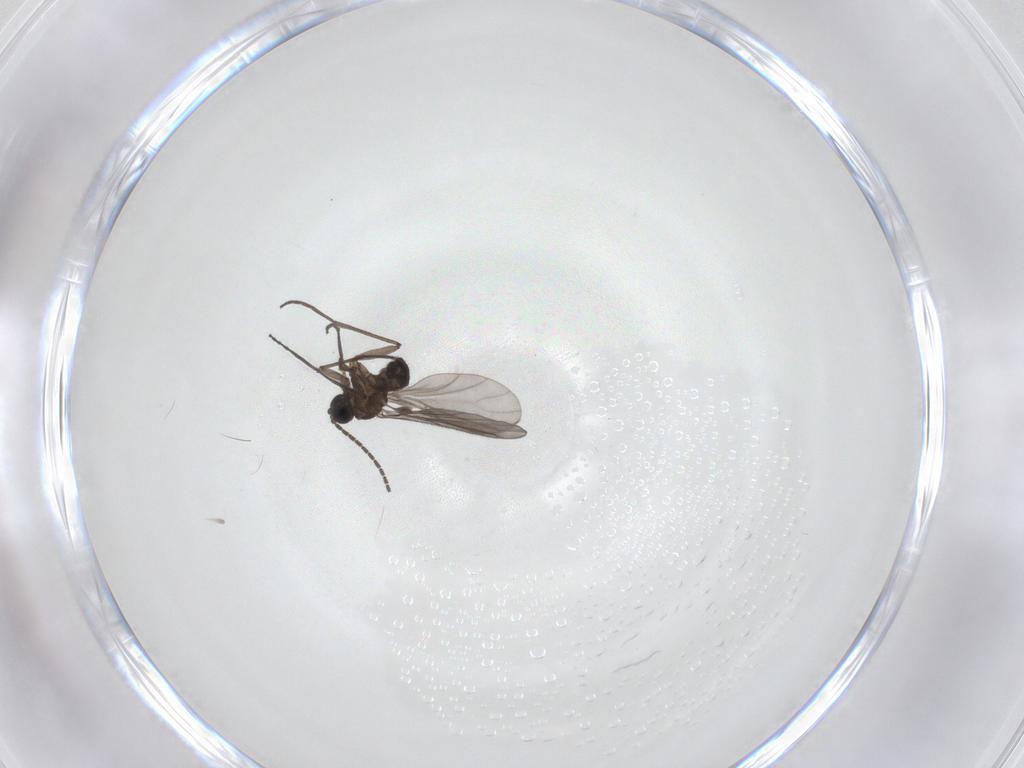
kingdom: Animalia
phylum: Arthropoda
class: Insecta
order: Diptera
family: Sciaridae
